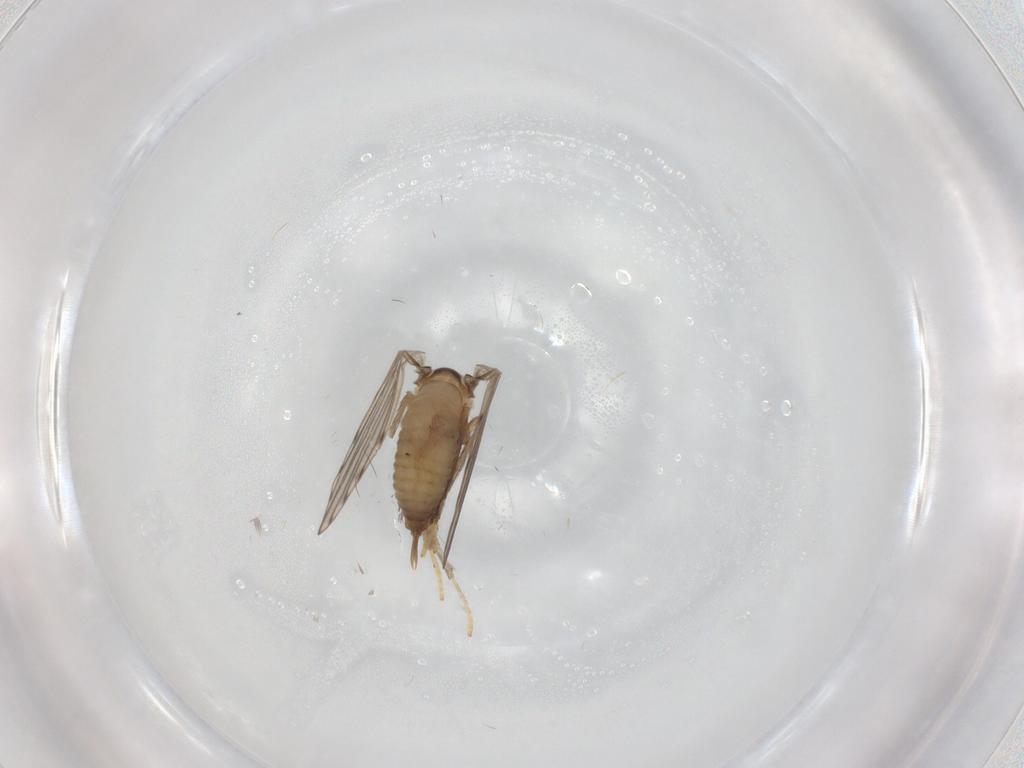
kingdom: Animalia
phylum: Arthropoda
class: Insecta
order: Diptera
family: Psychodidae
